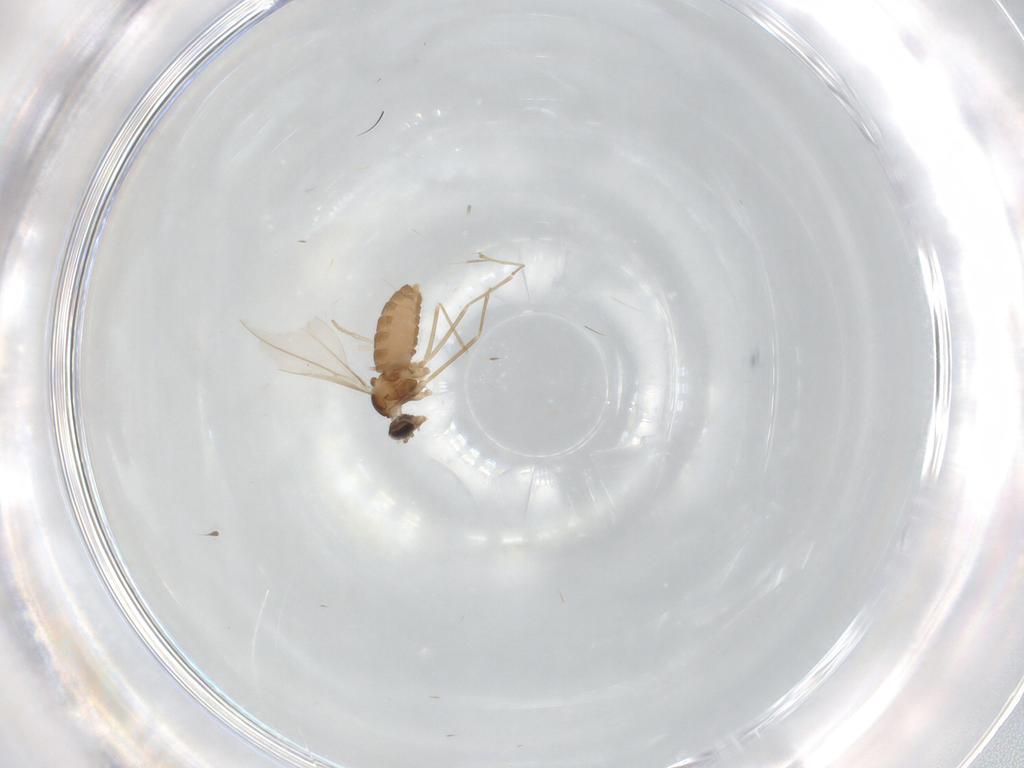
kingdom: Animalia
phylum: Arthropoda
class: Insecta
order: Diptera
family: Cecidomyiidae
